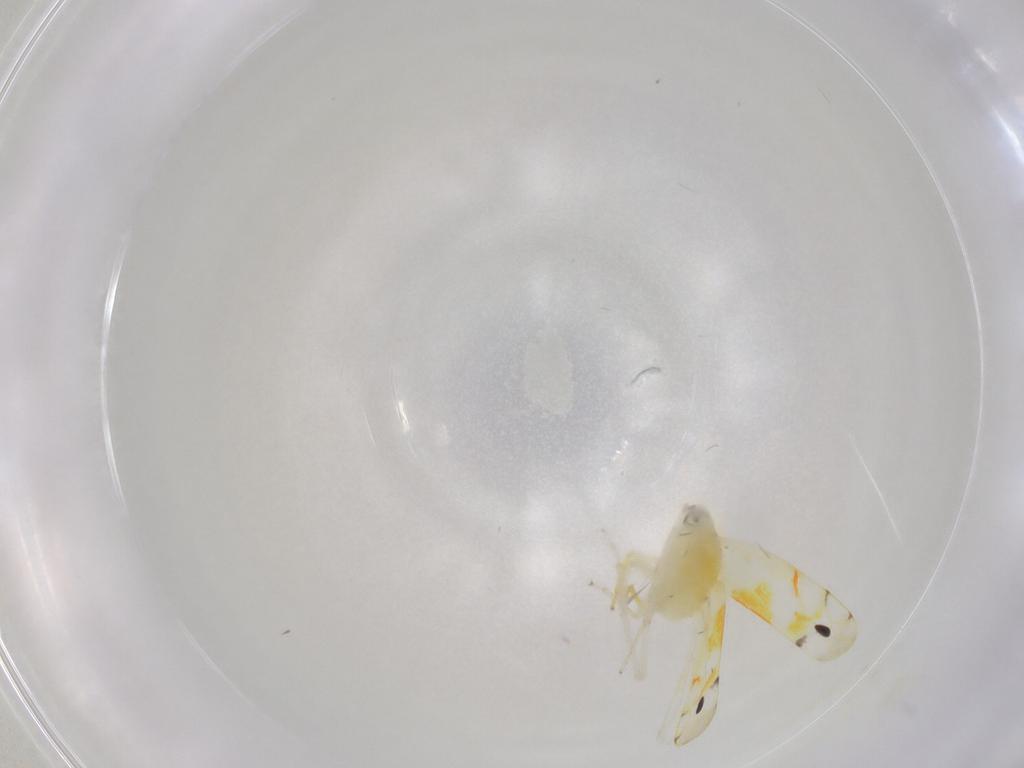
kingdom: Animalia
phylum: Arthropoda
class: Insecta
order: Hemiptera
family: Cicadellidae
